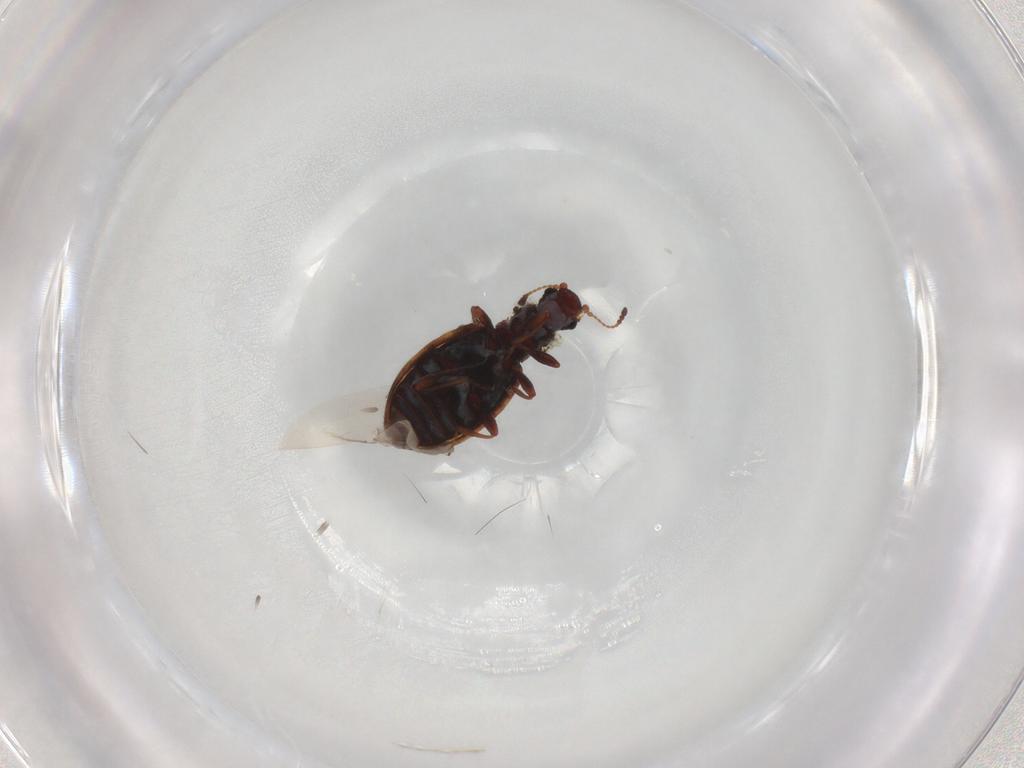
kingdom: Animalia
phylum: Arthropoda
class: Insecta
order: Coleoptera
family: Latridiidae
